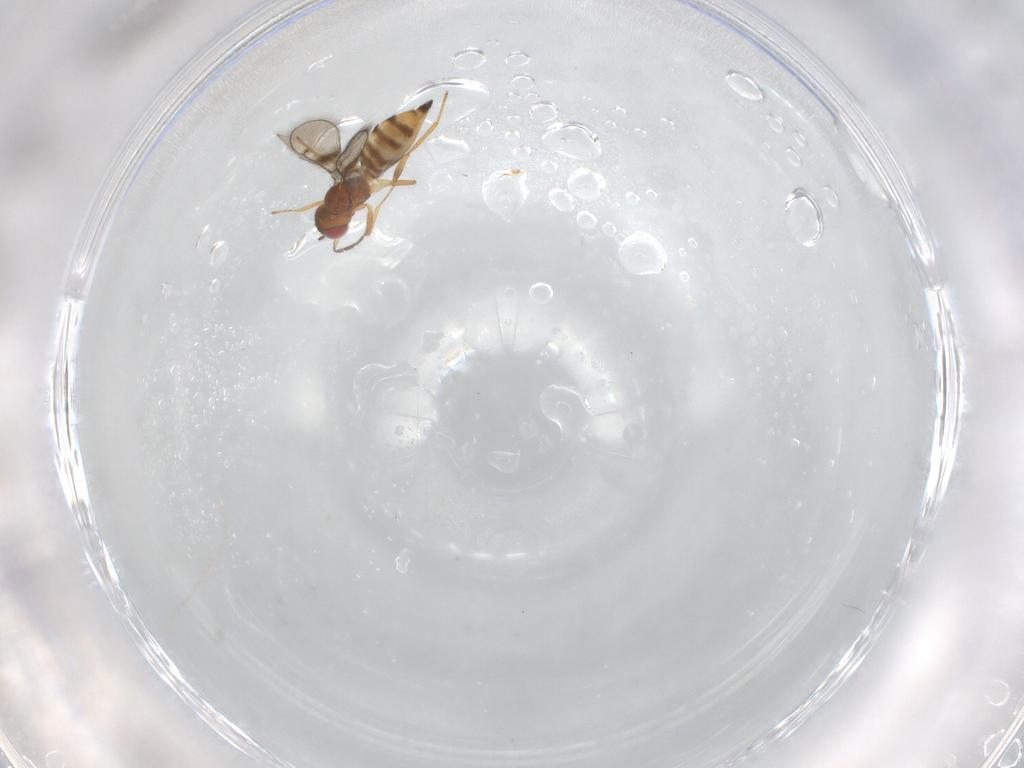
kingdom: Animalia
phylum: Arthropoda
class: Insecta
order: Hymenoptera
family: Eulophidae
